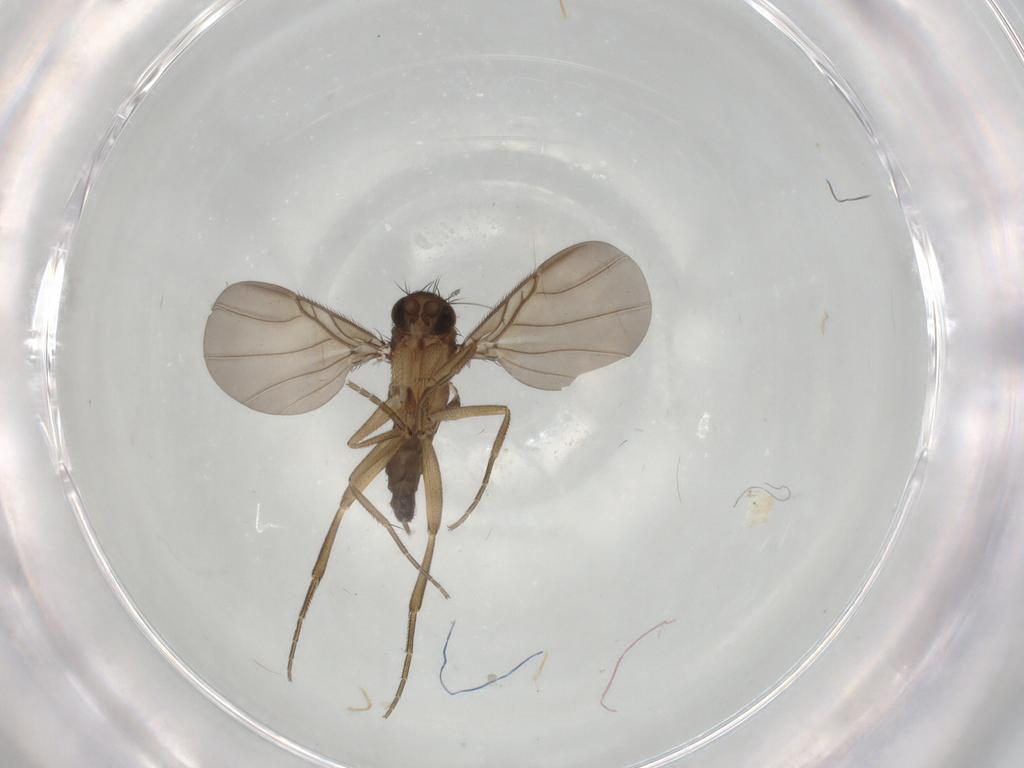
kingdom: Animalia
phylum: Arthropoda
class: Insecta
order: Diptera
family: Phoridae
